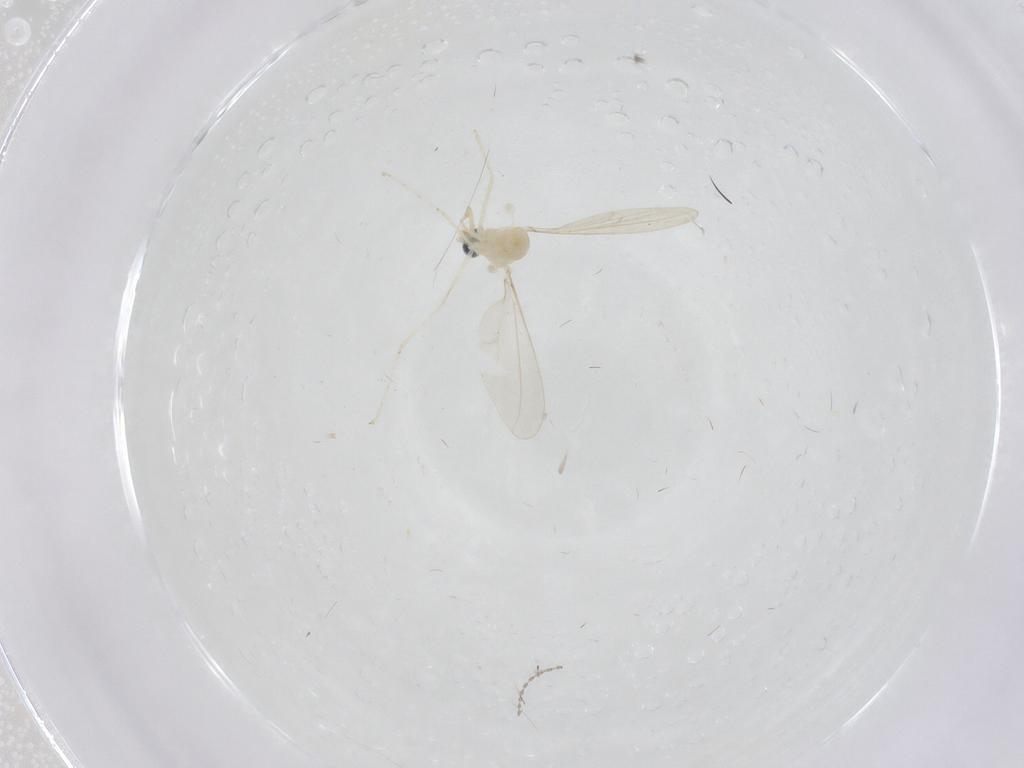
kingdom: Animalia
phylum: Arthropoda
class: Insecta
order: Diptera
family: Cecidomyiidae
